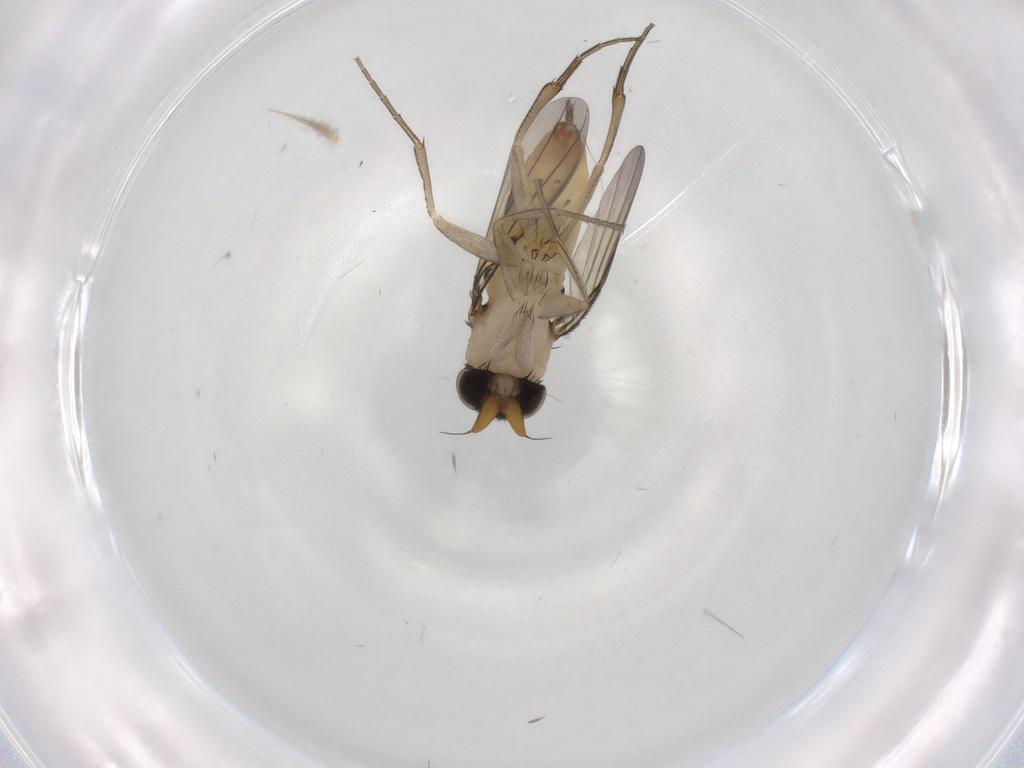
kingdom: Animalia
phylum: Arthropoda
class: Insecta
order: Diptera
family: Phoridae
